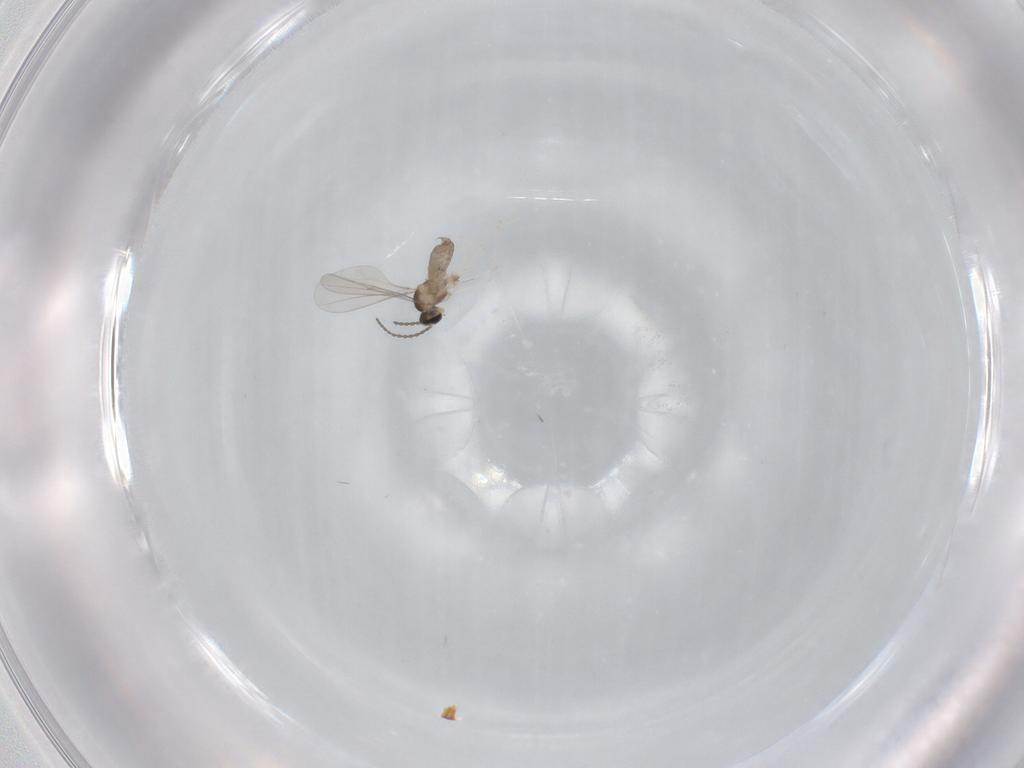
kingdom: Animalia
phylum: Arthropoda
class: Insecta
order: Diptera
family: Cecidomyiidae
